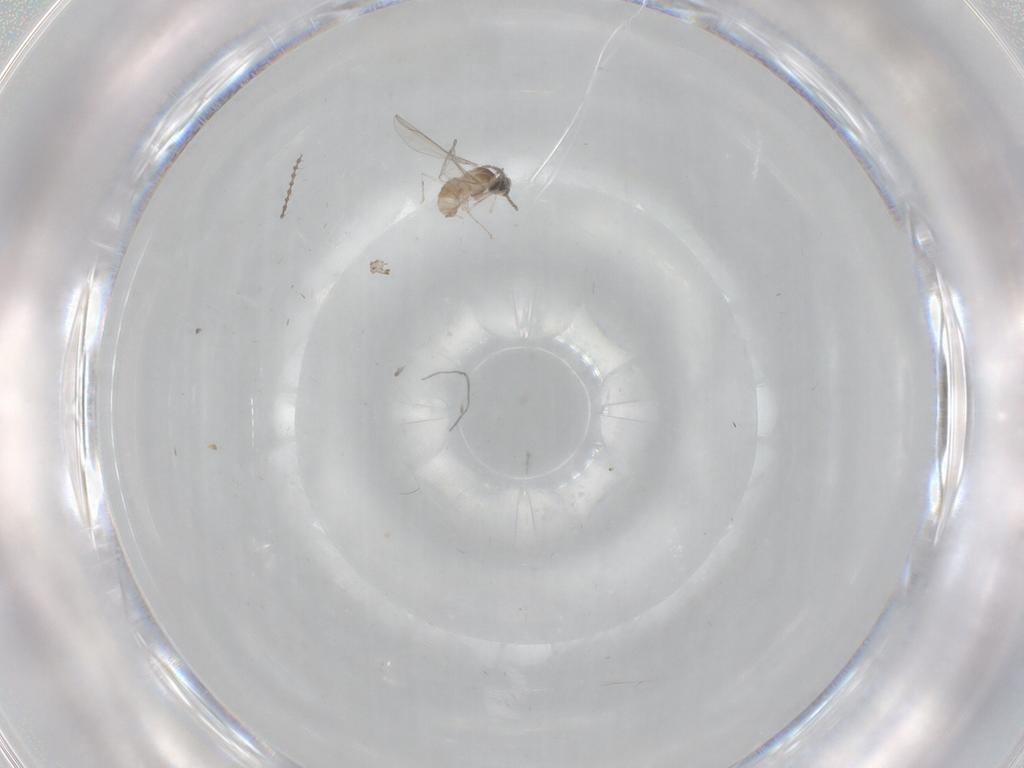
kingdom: Animalia
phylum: Arthropoda
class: Insecta
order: Diptera
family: Cecidomyiidae
